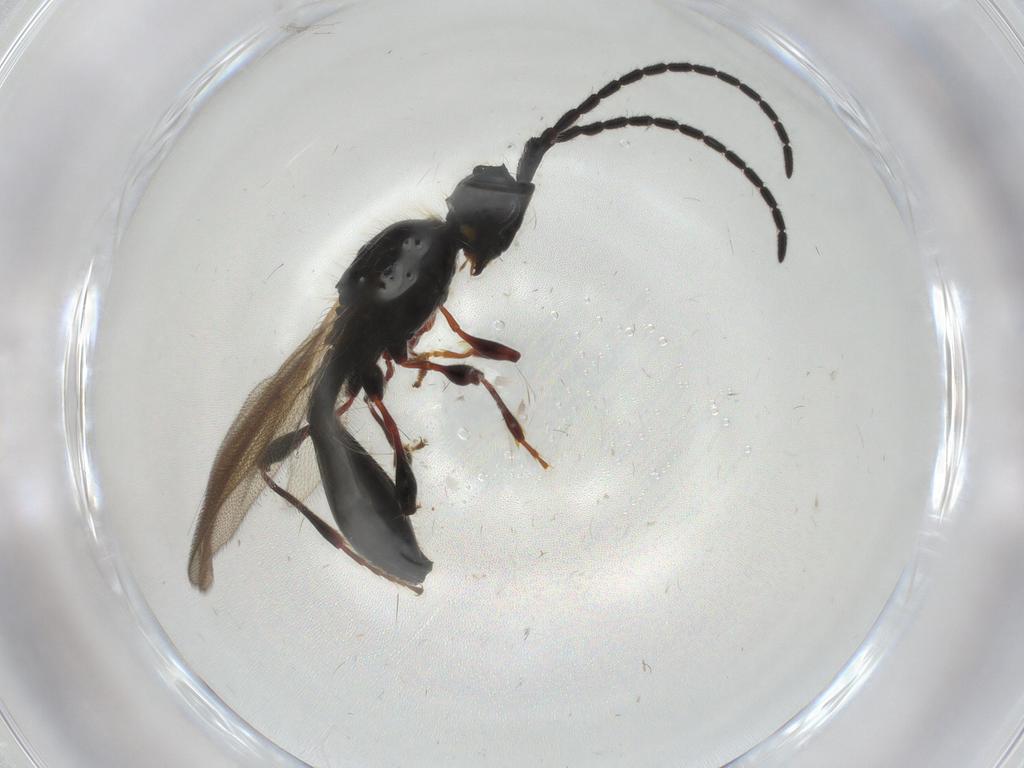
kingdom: Animalia
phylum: Arthropoda
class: Insecta
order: Hymenoptera
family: Diapriidae
